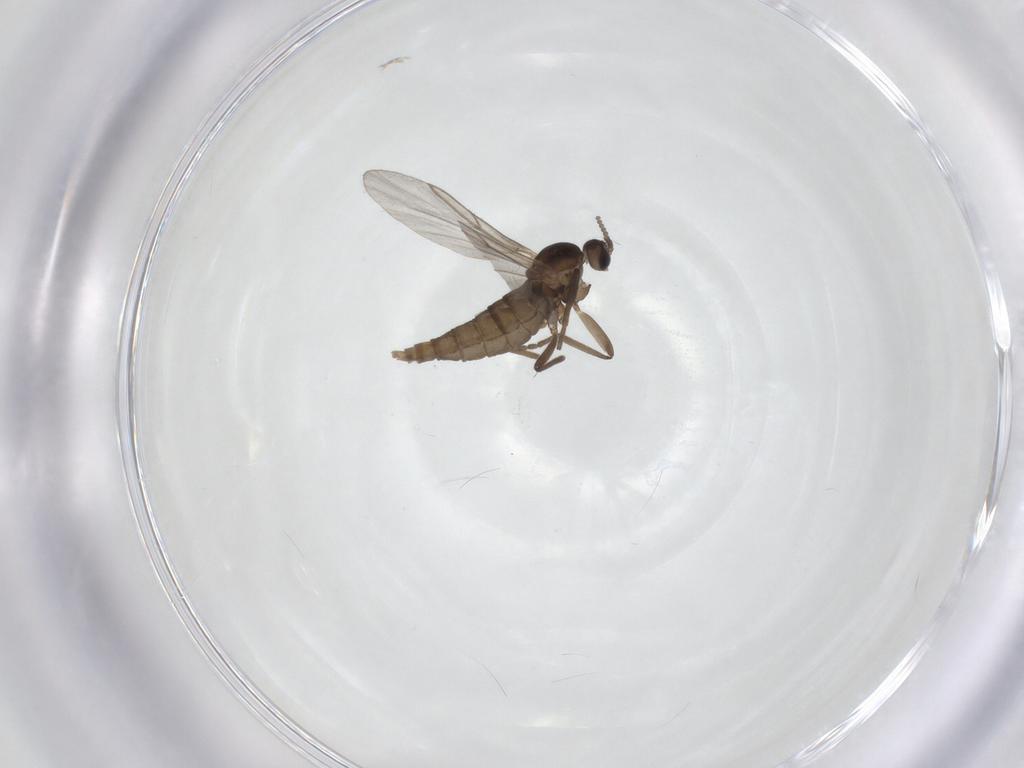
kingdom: Animalia
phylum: Arthropoda
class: Insecta
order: Diptera
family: Cecidomyiidae
